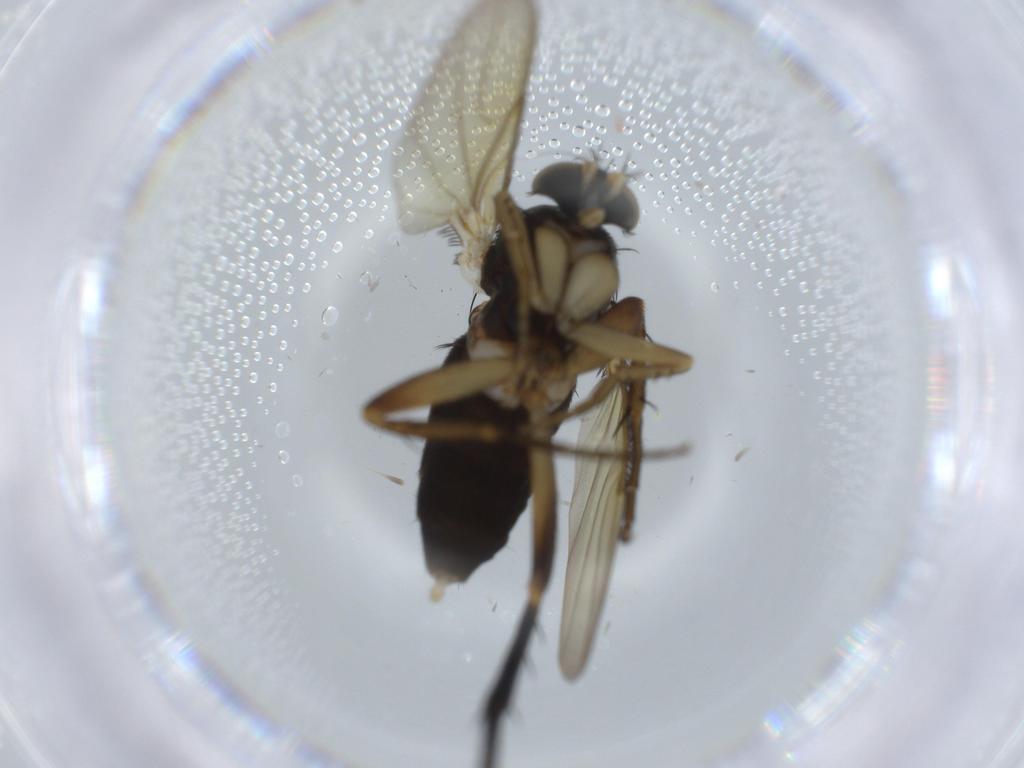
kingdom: Animalia
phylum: Arthropoda
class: Insecta
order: Diptera
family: Phoridae
